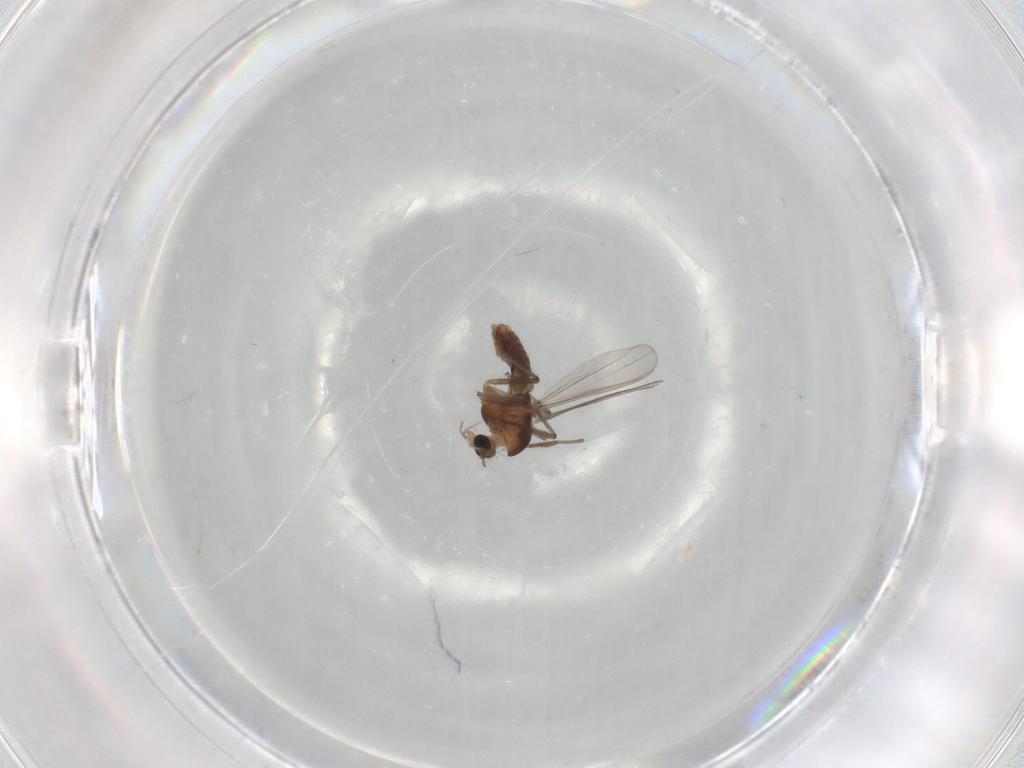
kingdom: Animalia
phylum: Arthropoda
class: Insecta
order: Diptera
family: Chironomidae
